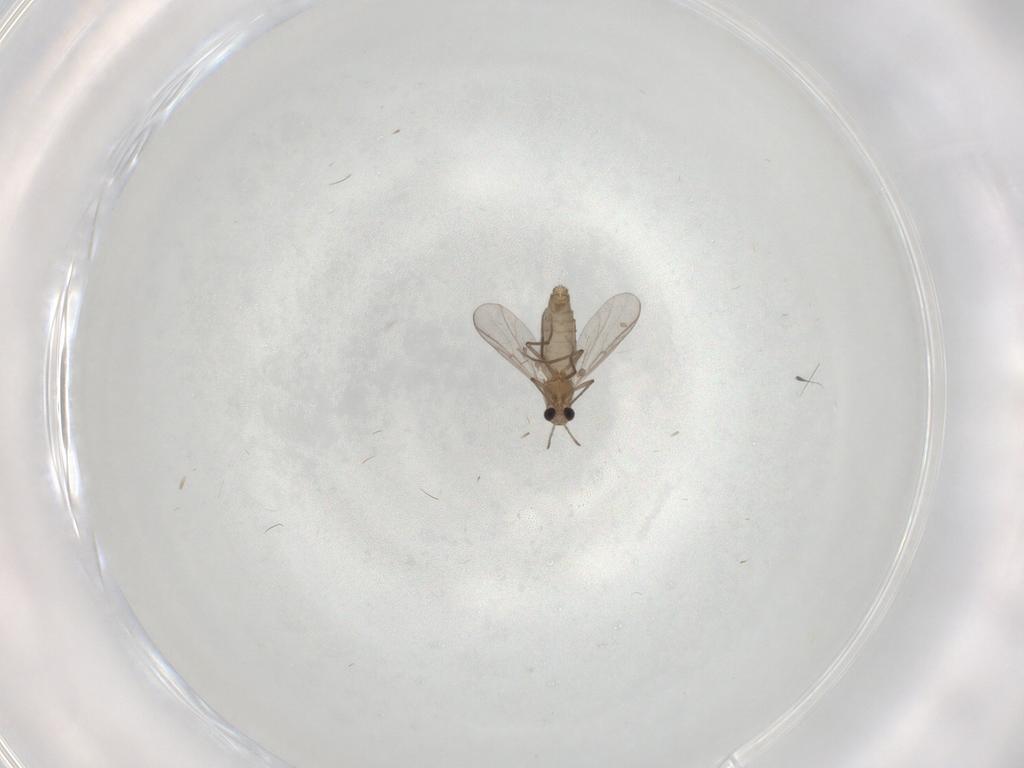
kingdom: Animalia
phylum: Arthropoda
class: Insecta
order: Diptera
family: Chironomidae
